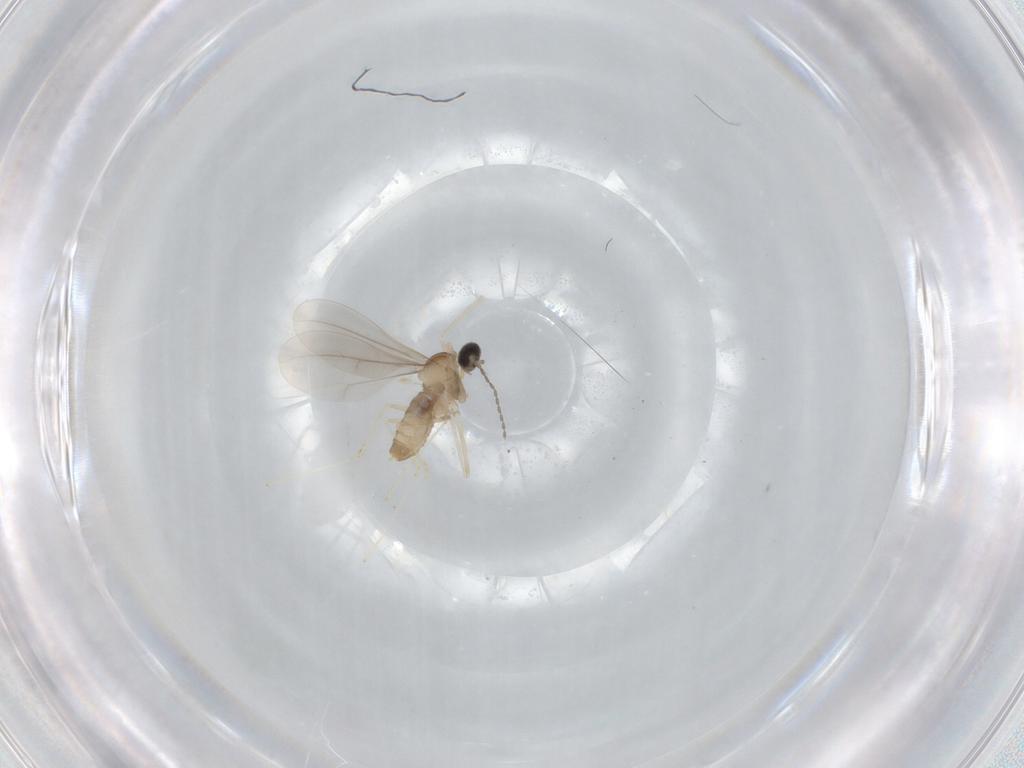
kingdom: Animalia
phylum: Arthropoda
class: Insecta
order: Diptera
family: Cecidomyiidae
